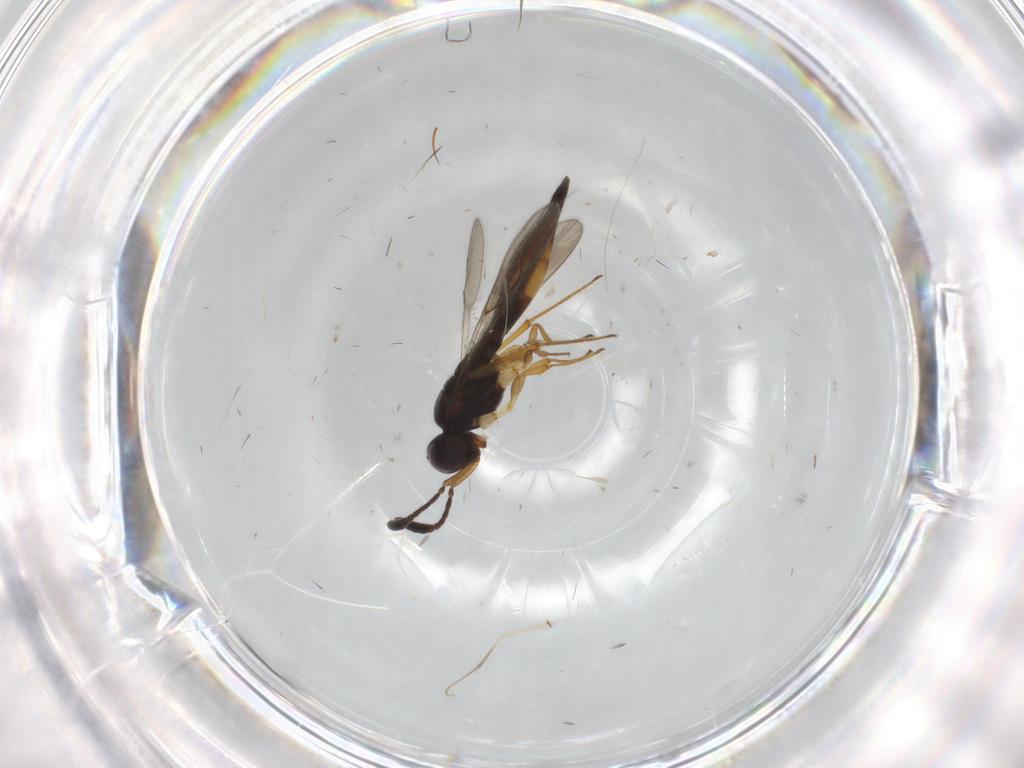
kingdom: Animalia
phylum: Arthropoda
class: Insecta
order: Hymenoptera
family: Scelionidae
